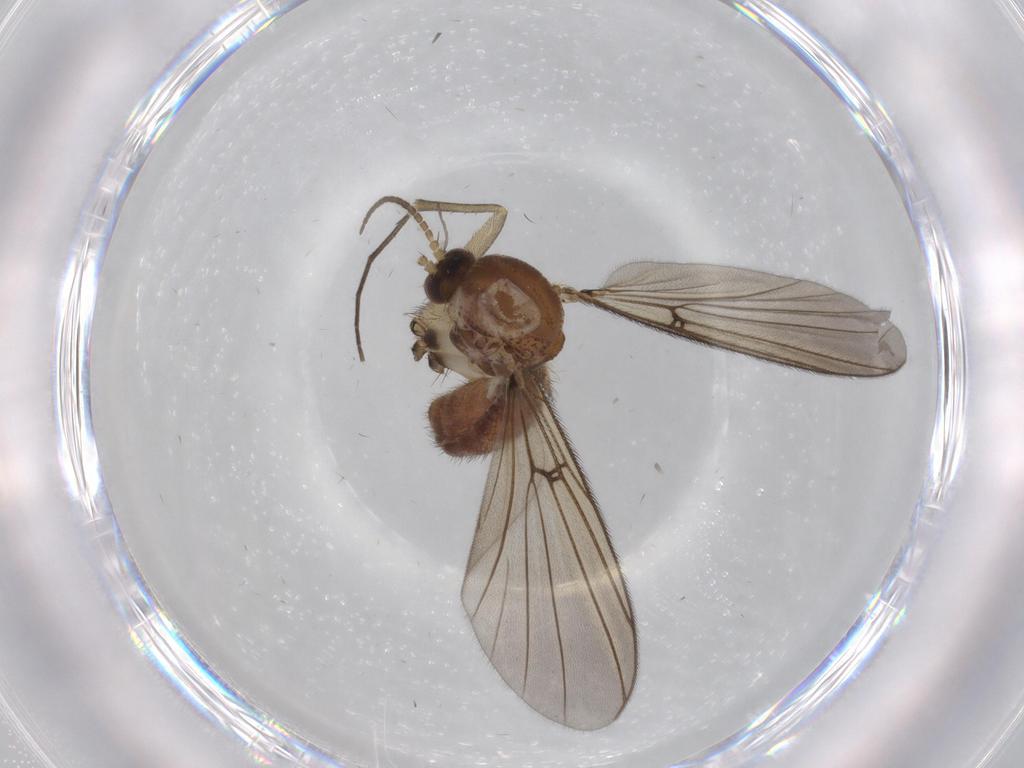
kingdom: Animalia
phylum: Arthropoda
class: Insecta
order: Diptera
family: Mycetophilidae
